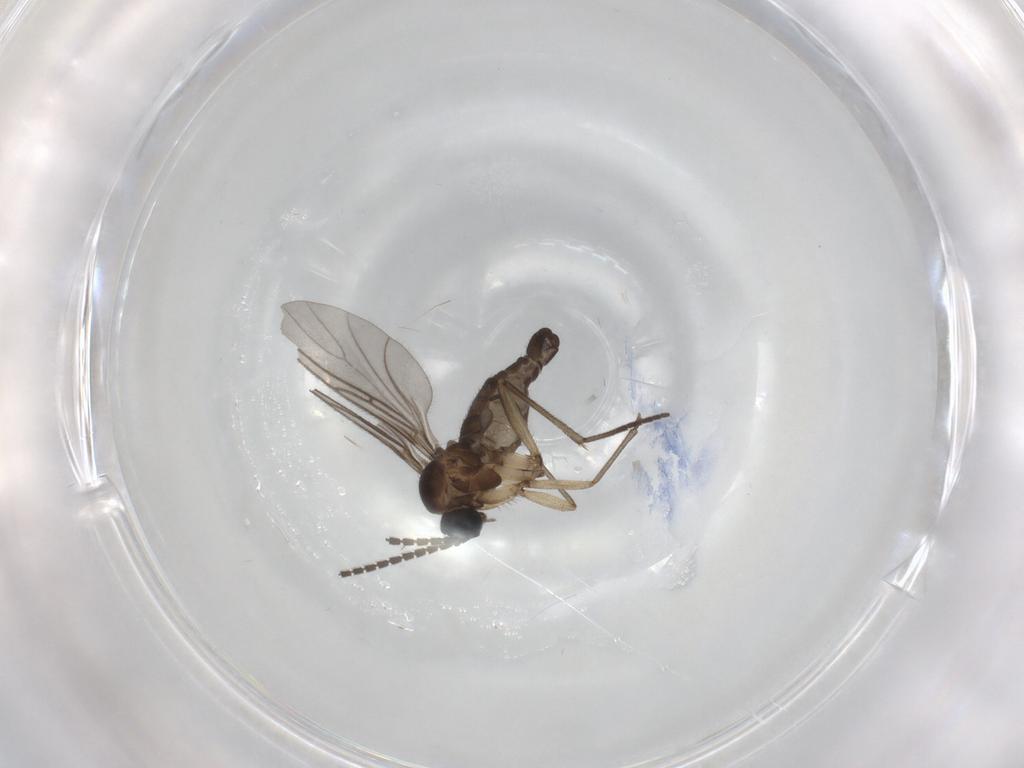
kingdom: Animalia
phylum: Arthropoda
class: Insecta
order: Diptera
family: Sciaridae
